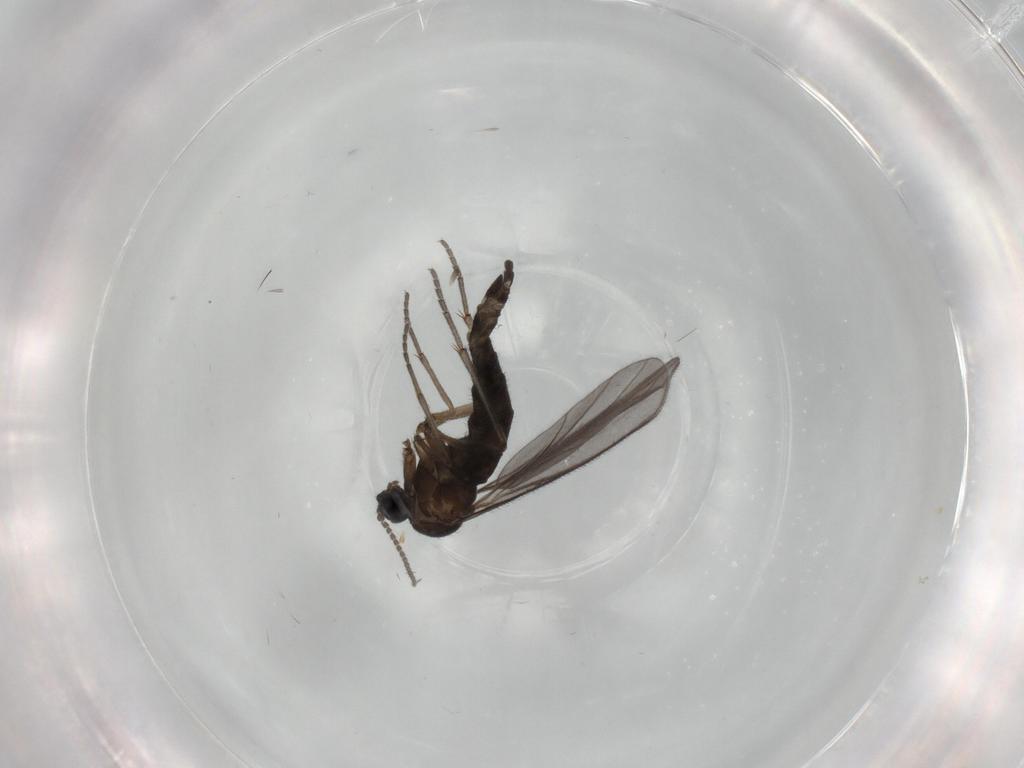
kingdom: Animalia
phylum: Arthropoda
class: Insecta
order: Diptera
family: Sciaridae
